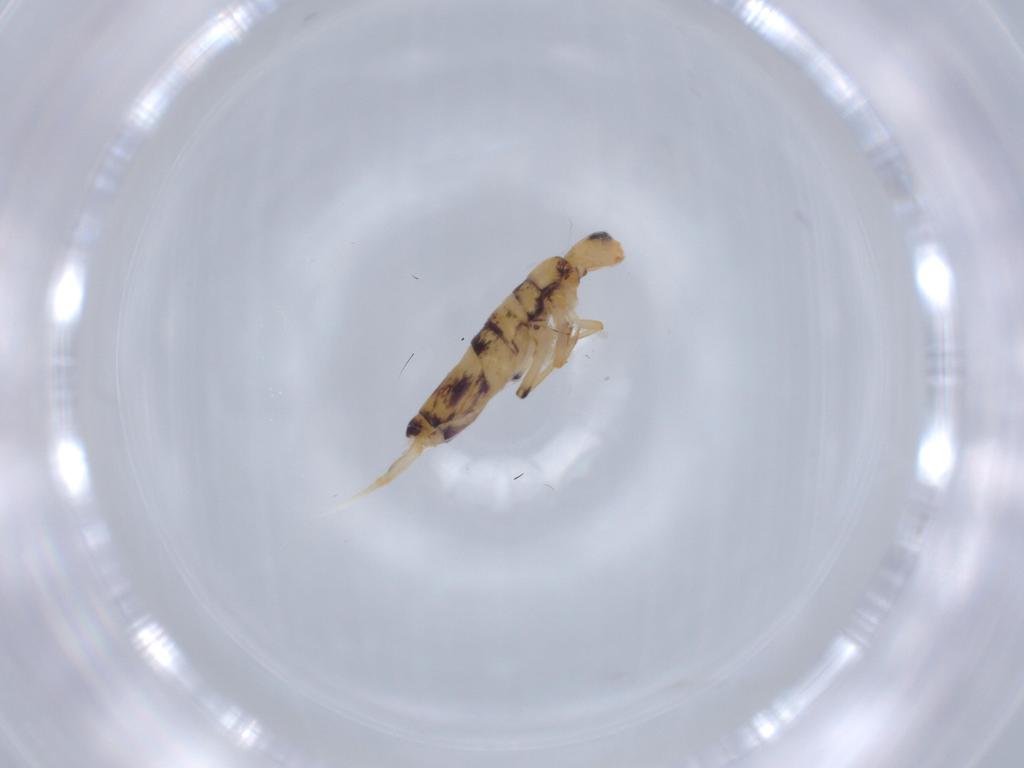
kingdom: Animalia
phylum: Arthropoda
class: Collembola
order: Entomobryomorpha
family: Entomobryidae
